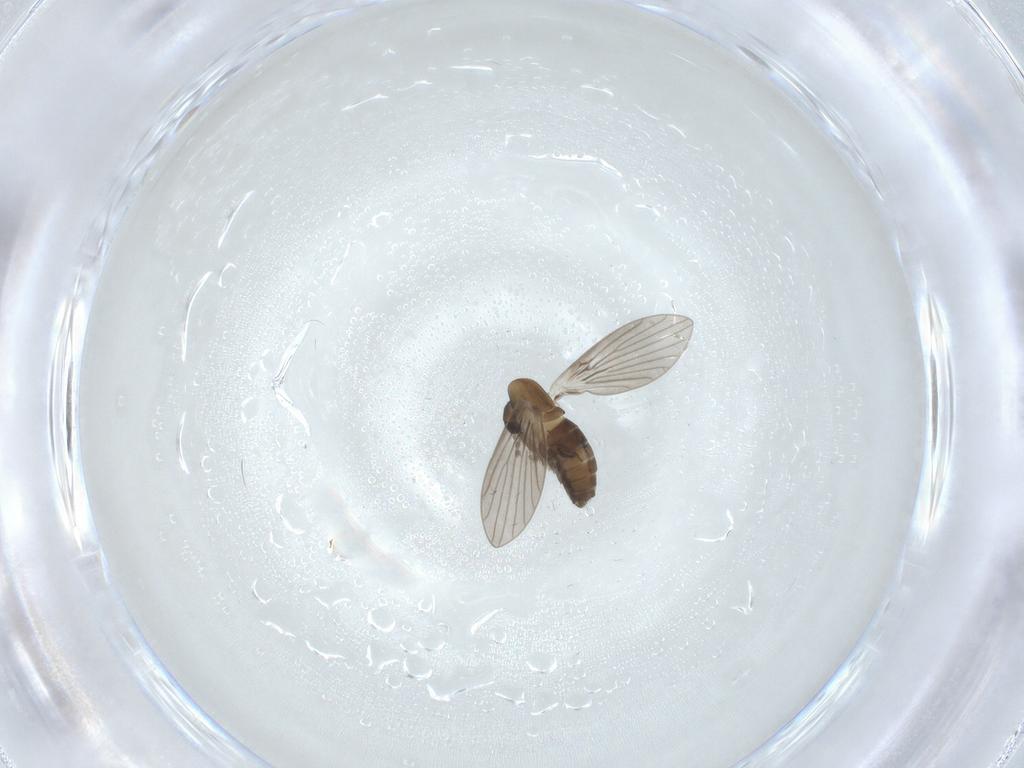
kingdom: Animalia
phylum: Arthropoda
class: Insecta
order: Diptera
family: Psychodidae
